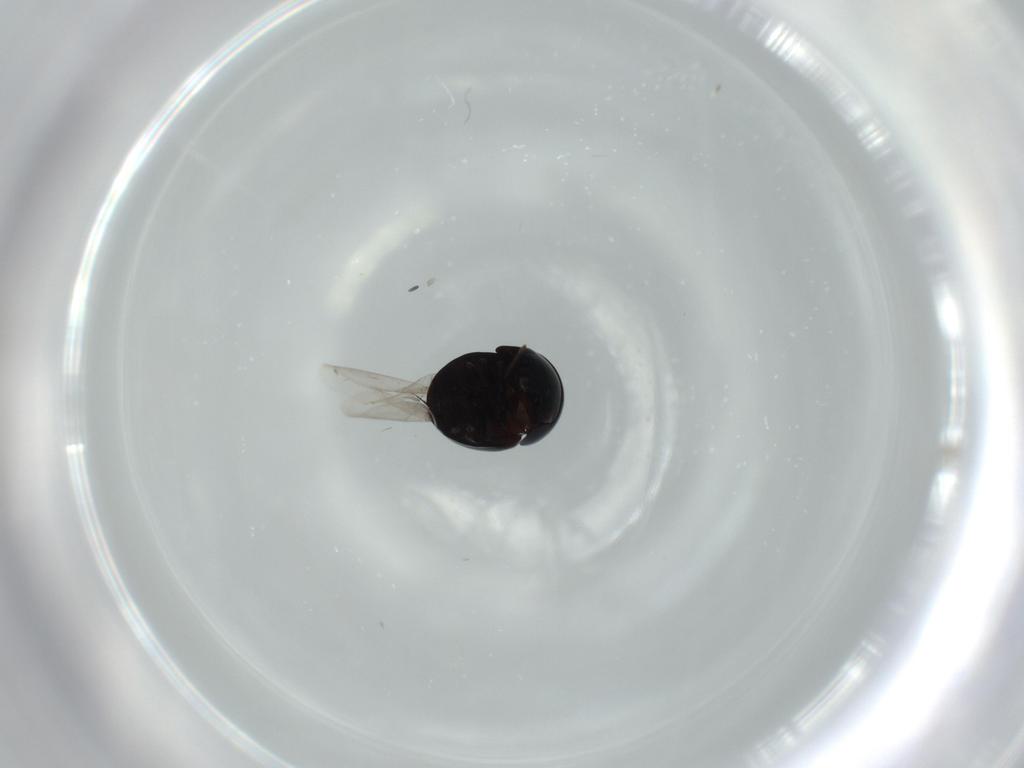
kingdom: Animalia
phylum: Arthropoda
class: Insecta
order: Coleoptera
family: Cybocephalidae
